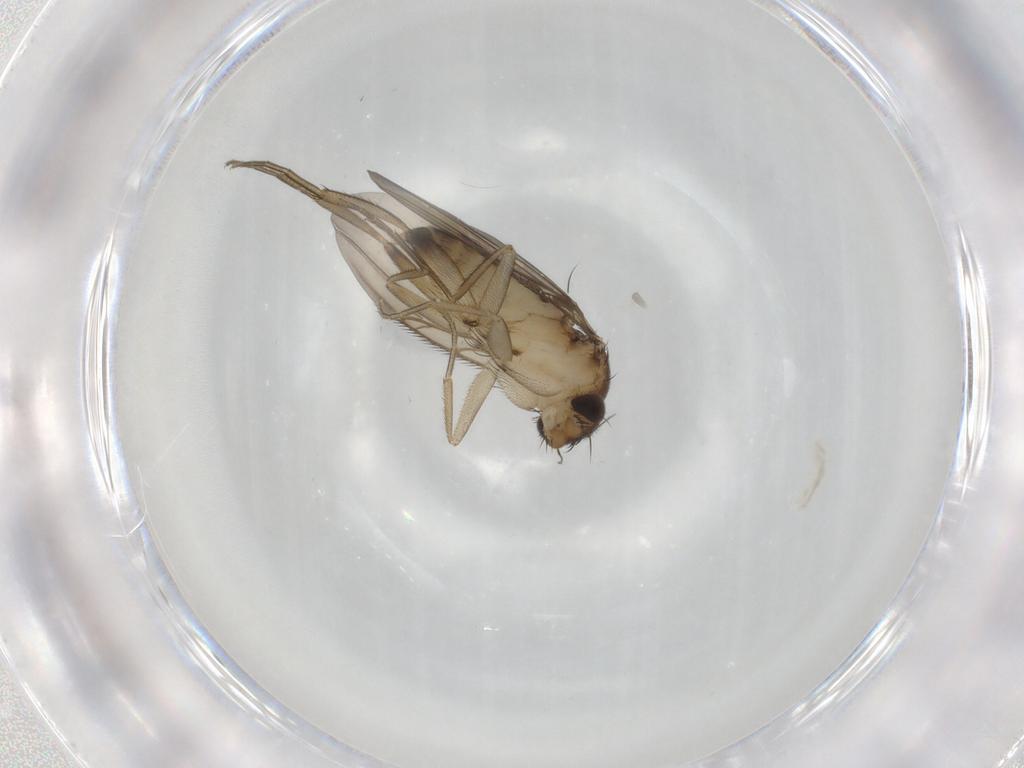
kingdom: Animalia
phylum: Arthropoda
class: Insecta
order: Diptera
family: Phoridae
